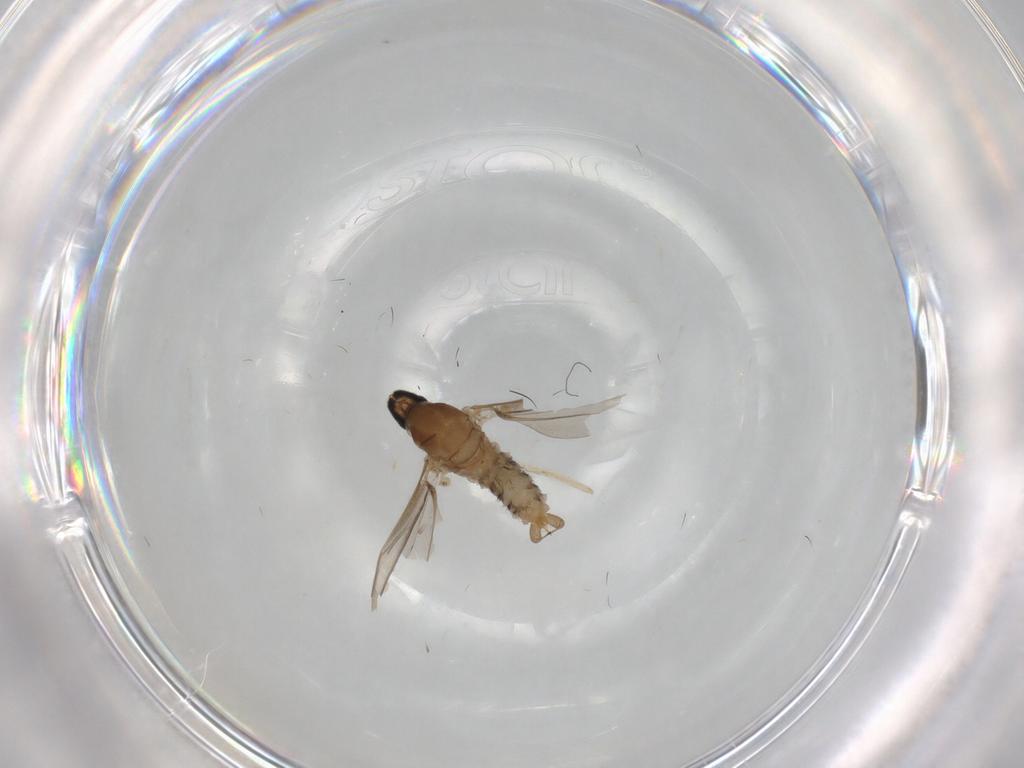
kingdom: Animalia
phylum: Arthropoda
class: Insecta
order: Diptera
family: Cecidomyiidae
